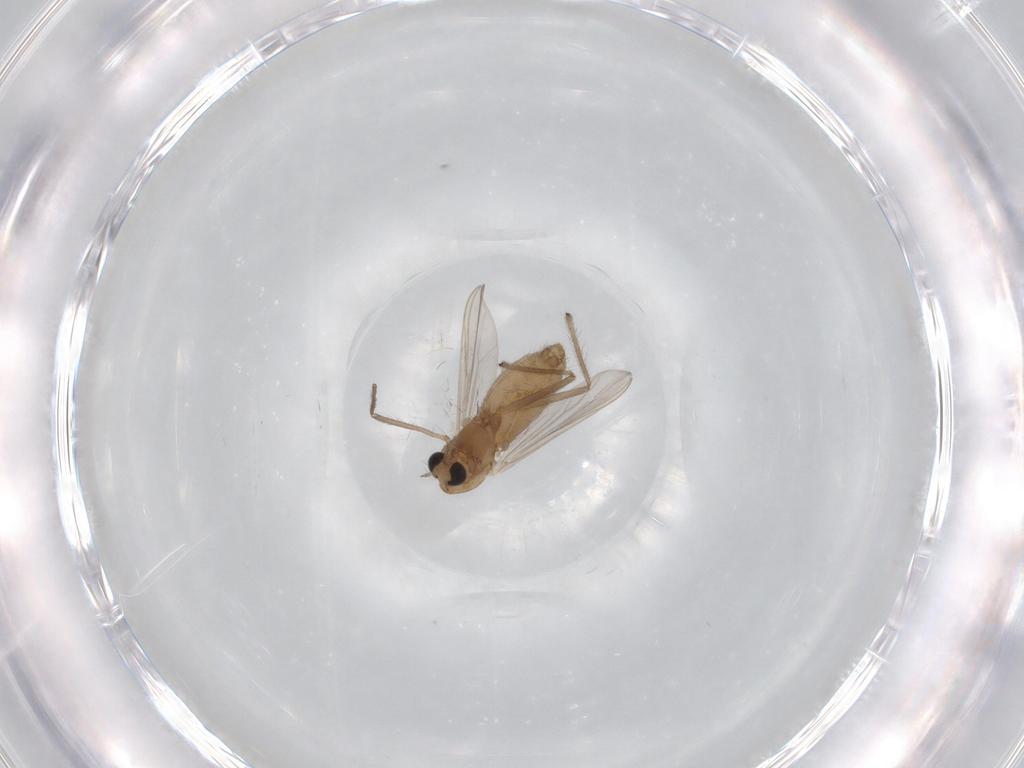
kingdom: Animalia
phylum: Arthropoda
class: Insecta
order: Diptera
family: Chironomidae
